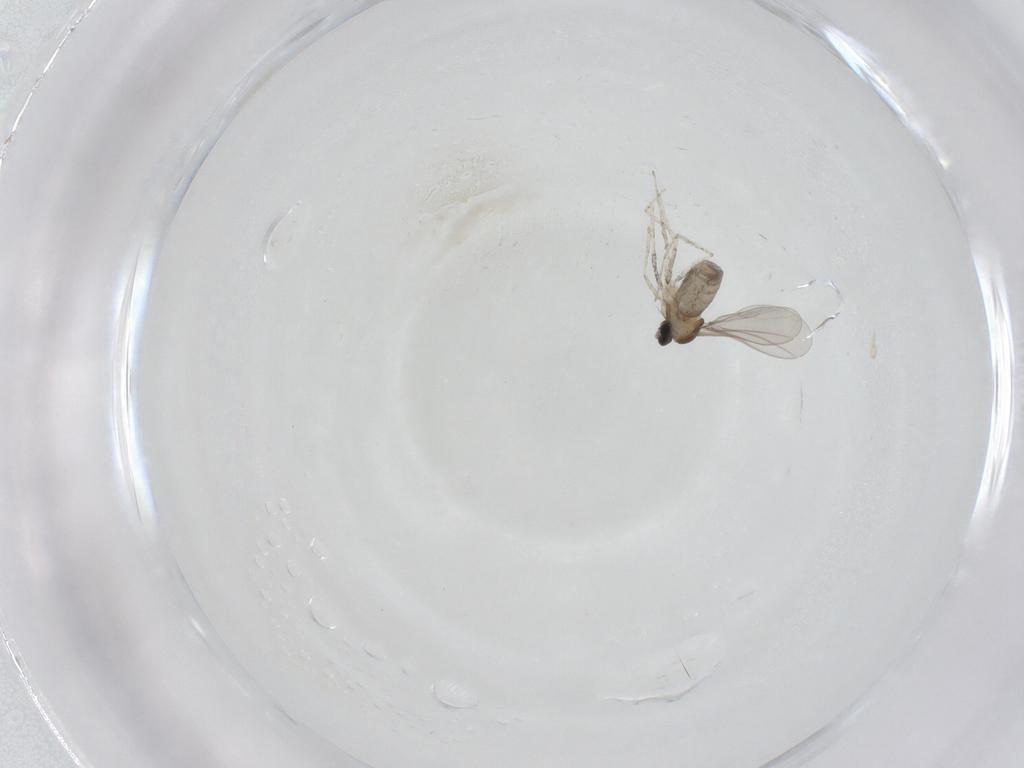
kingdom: Animalia
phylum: Arthropoda
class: Insecta
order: Diptera
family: Cecidomyiidae
